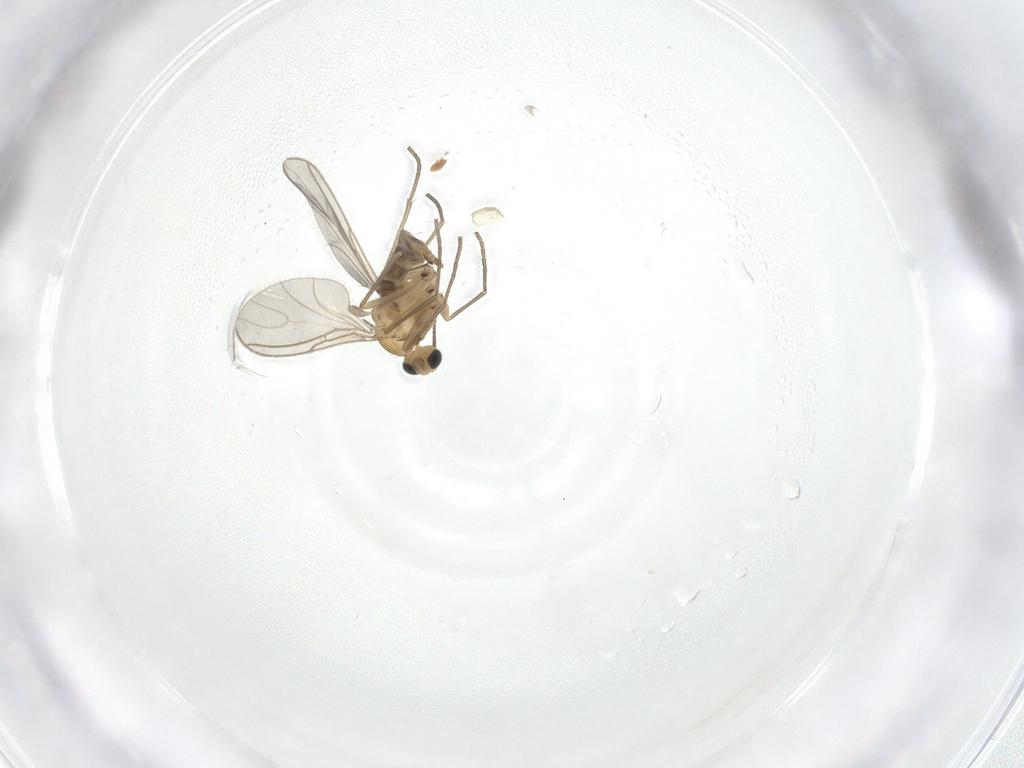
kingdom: Animalia
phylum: Arthropoda
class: Insecta
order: Diptera
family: Sciaridae
